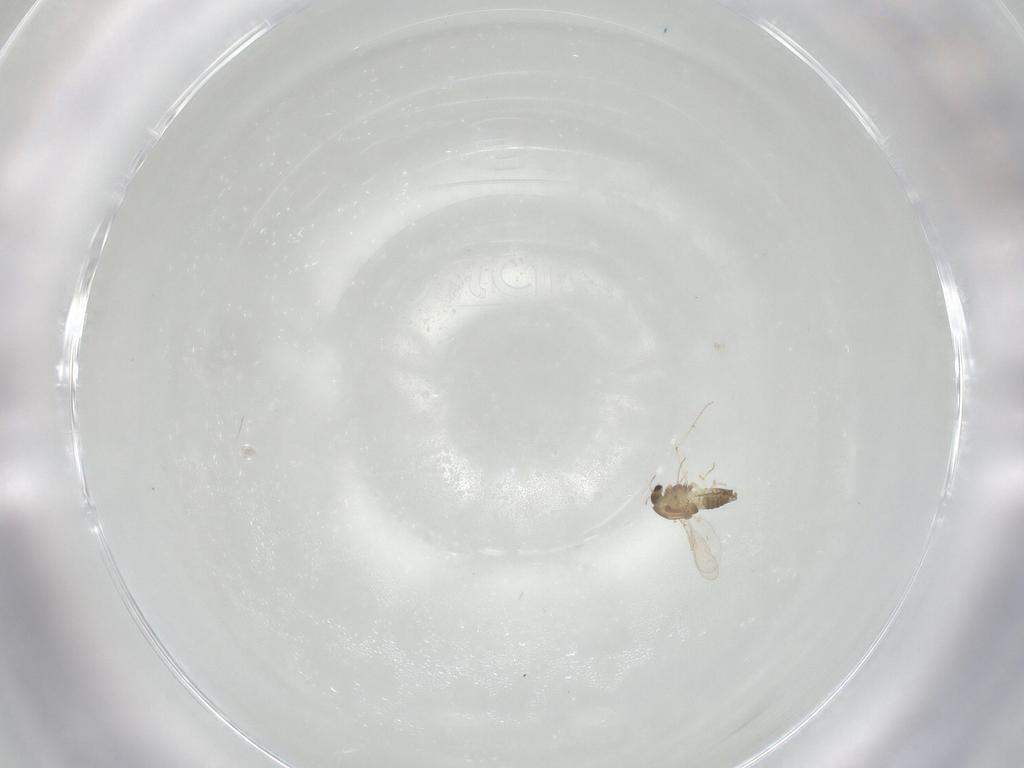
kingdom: Animalia
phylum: Arthropoda
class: Insecta
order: Diptera
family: Chironomidae
